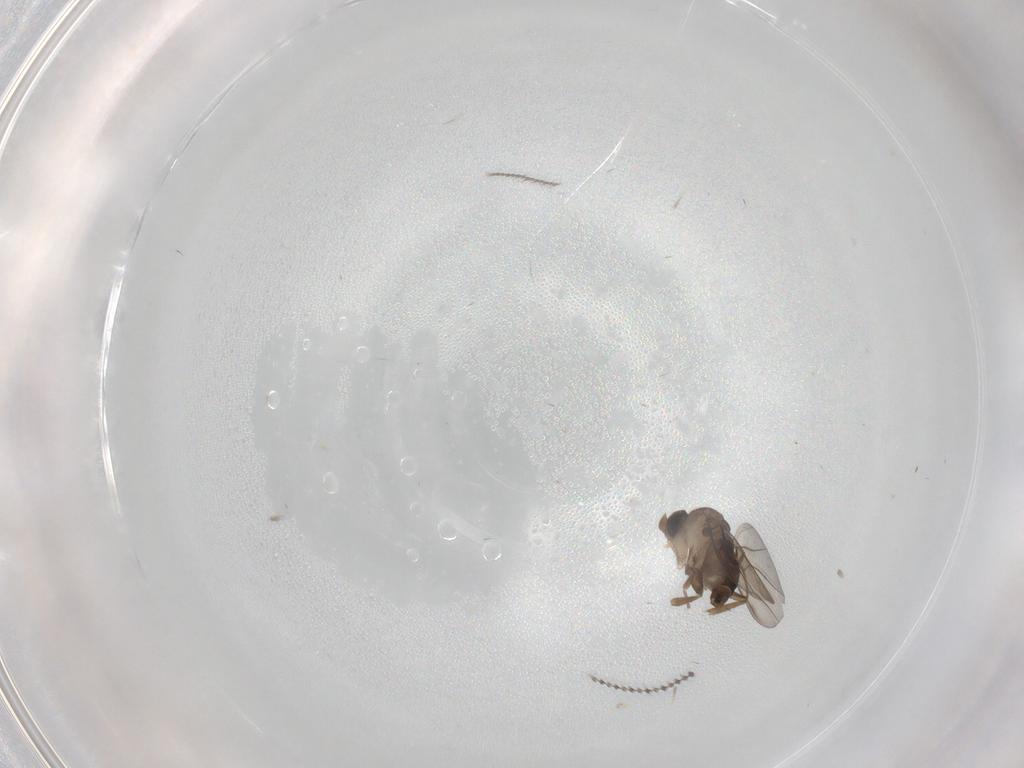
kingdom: Animalia
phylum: Arthropoda
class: Insecta
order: Diptera
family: Phoridae
